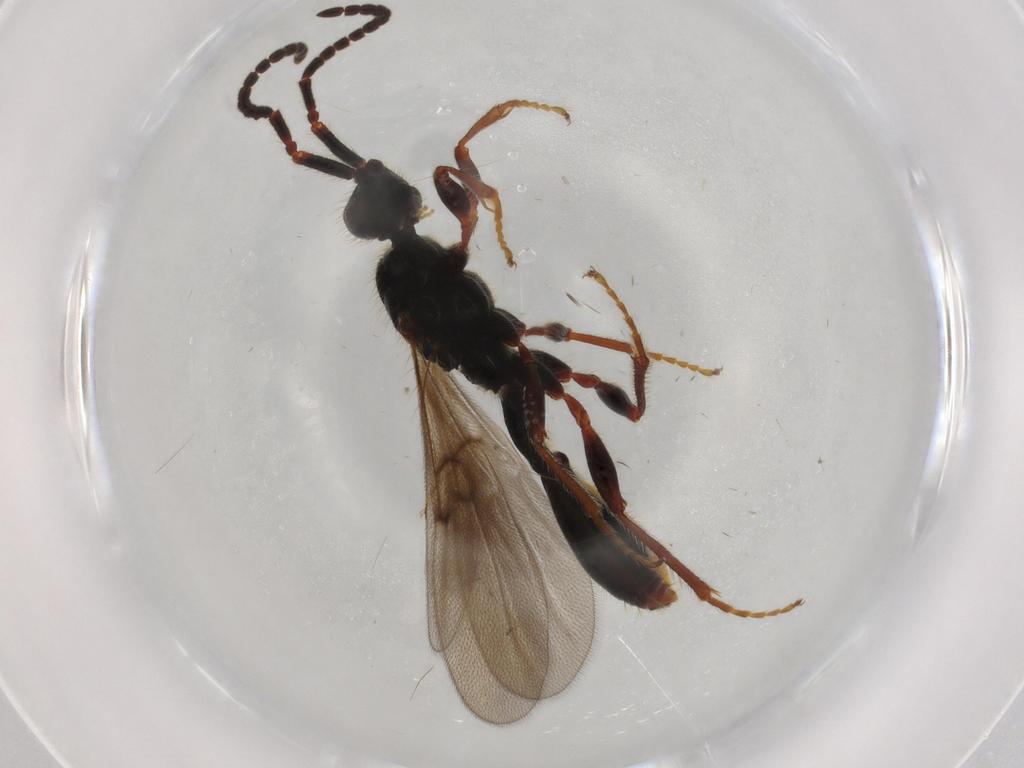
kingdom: Animalia
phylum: Arthropoda
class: Insecta
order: Hymenoptera
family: Diapriidae
